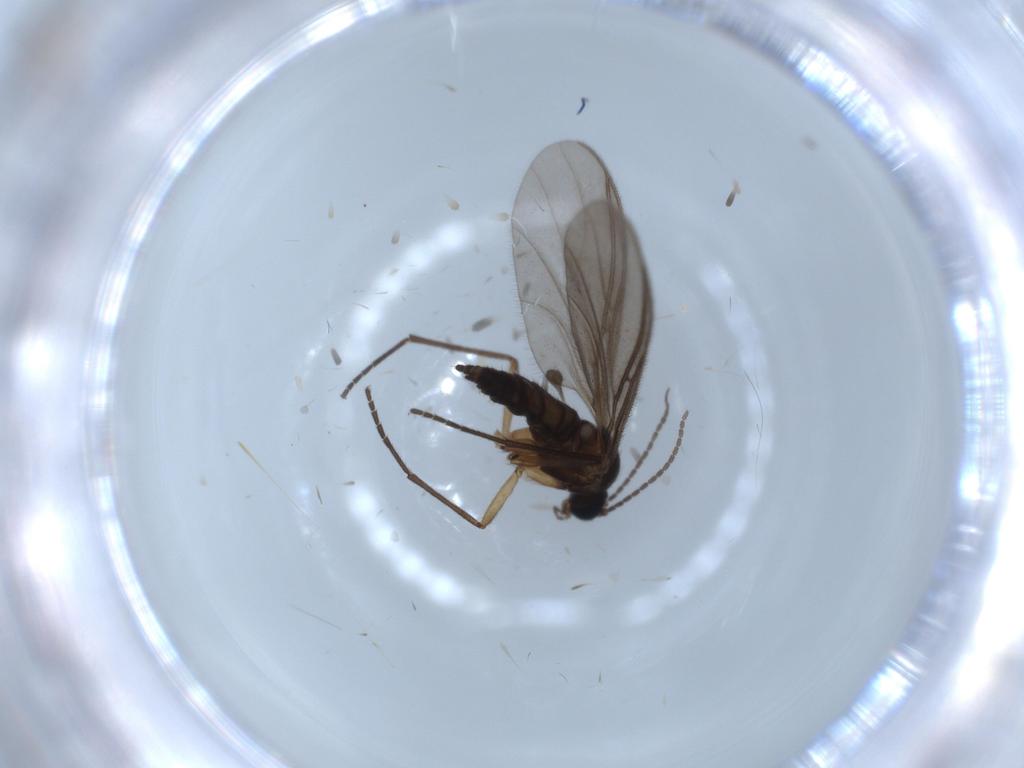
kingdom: Animalia
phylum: Arthropoda
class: Insecta
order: Diptera
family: Sciaridae
